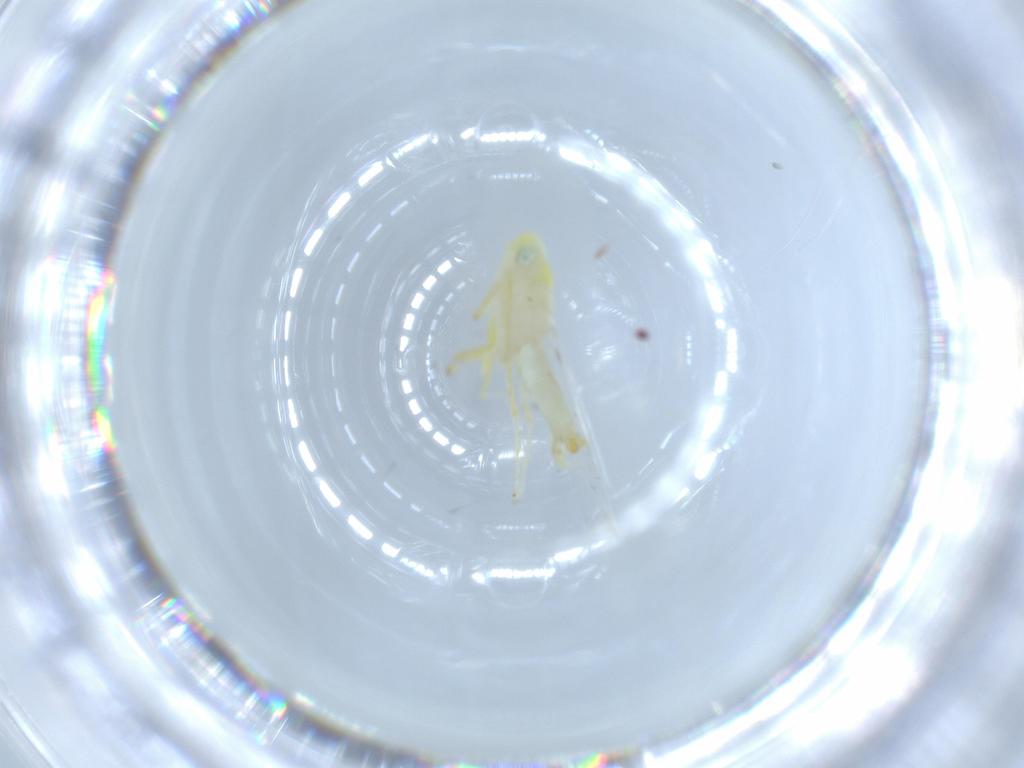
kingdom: Animalia
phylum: Arthropoda
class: Insecta
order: Hemiptera
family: Cicadellidae
